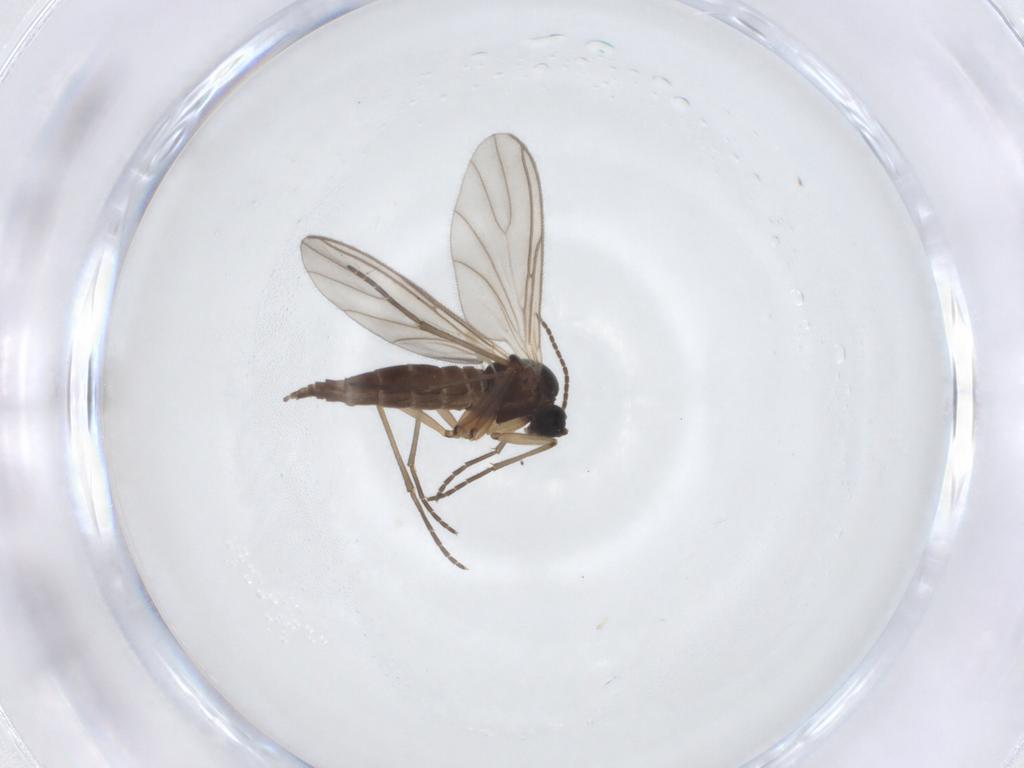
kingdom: Animalia
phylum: Arthropoda
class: Insecta
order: Diptera
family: Sciaridae
